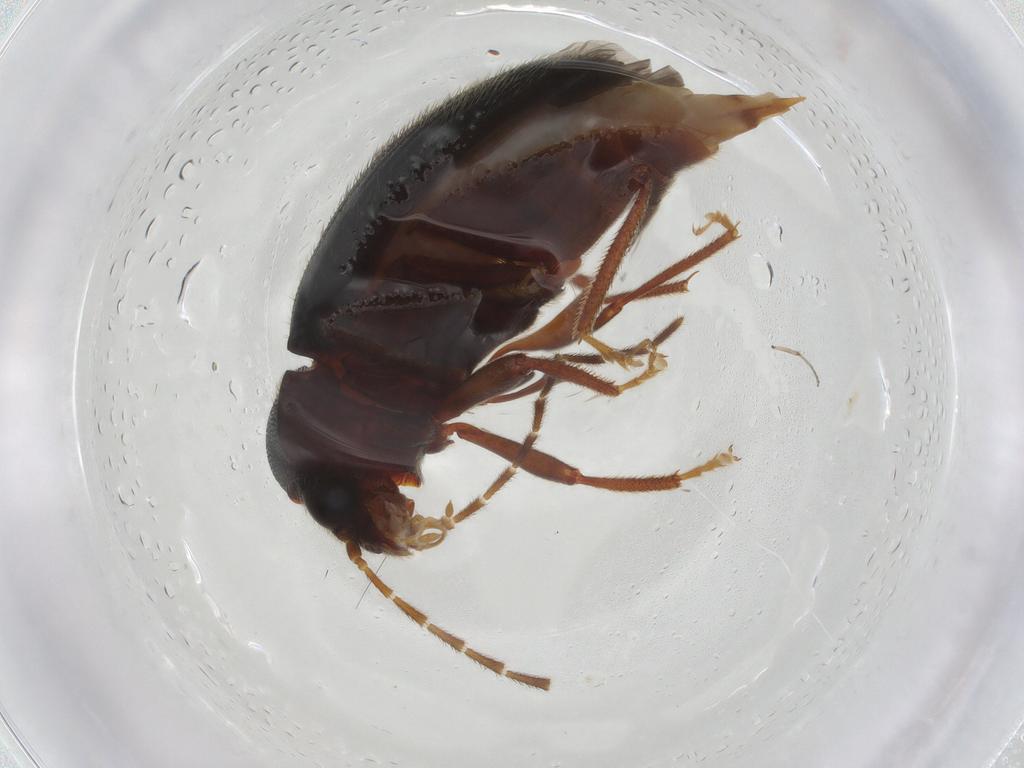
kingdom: Animalia
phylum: Arthropoda
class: Insecta
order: Coleoptera
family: Ptilodactylidae
